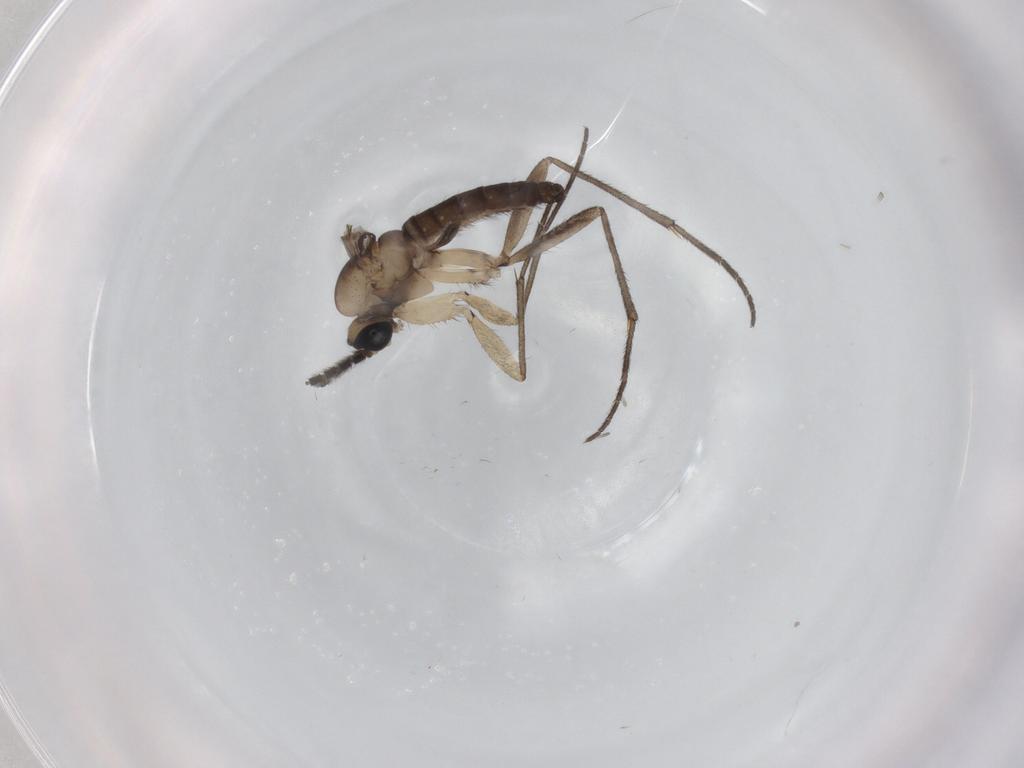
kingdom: Animalia
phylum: Arthropoda
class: Insecta
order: Diptera
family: Sciaridae
